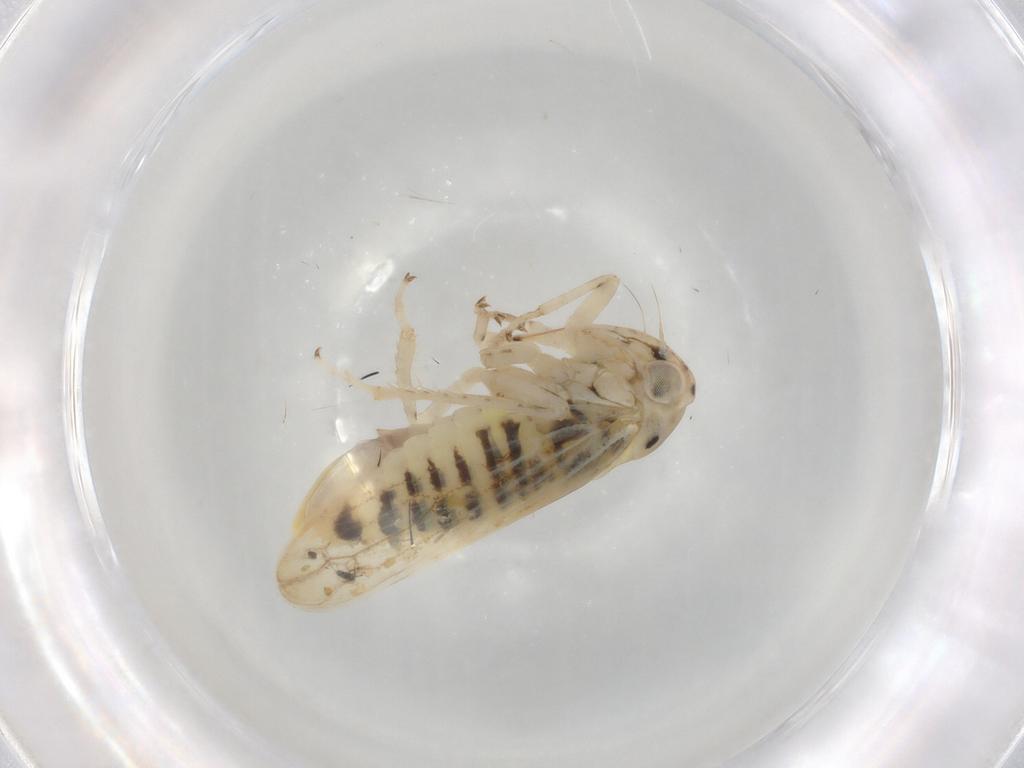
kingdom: Animalia
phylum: Arthropoda
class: Insecta
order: Hemiptera
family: Cicadellidae
